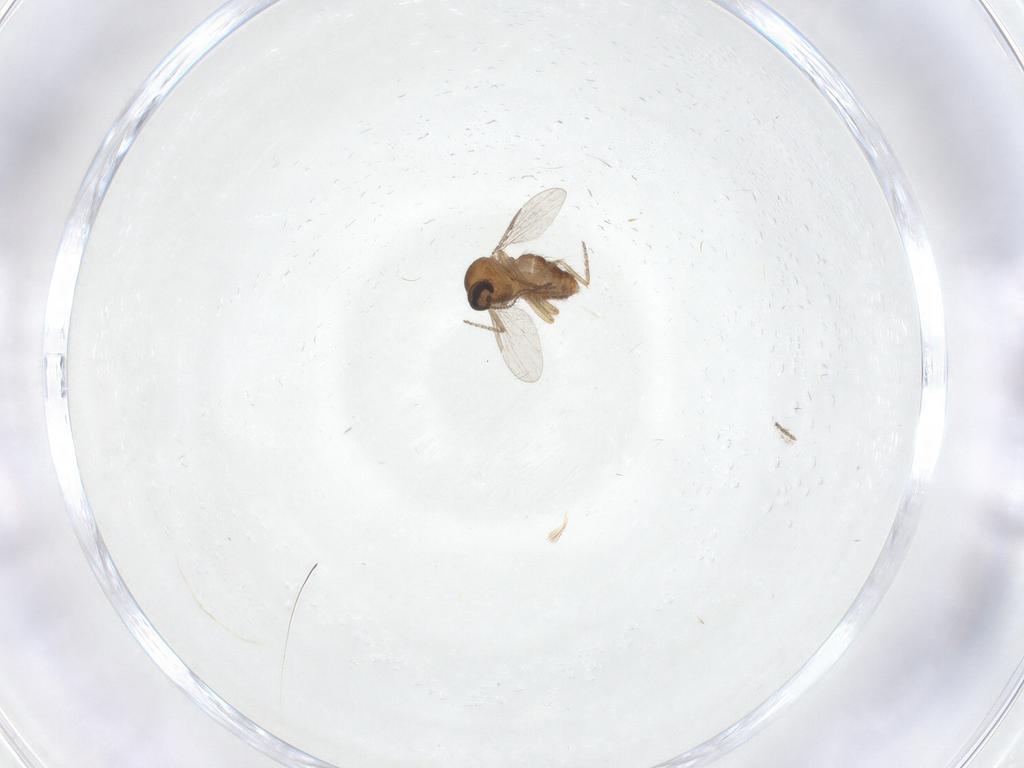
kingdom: Animalia
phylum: Arthropoda
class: Insecta
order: Diptera
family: Ceratopogonidae
